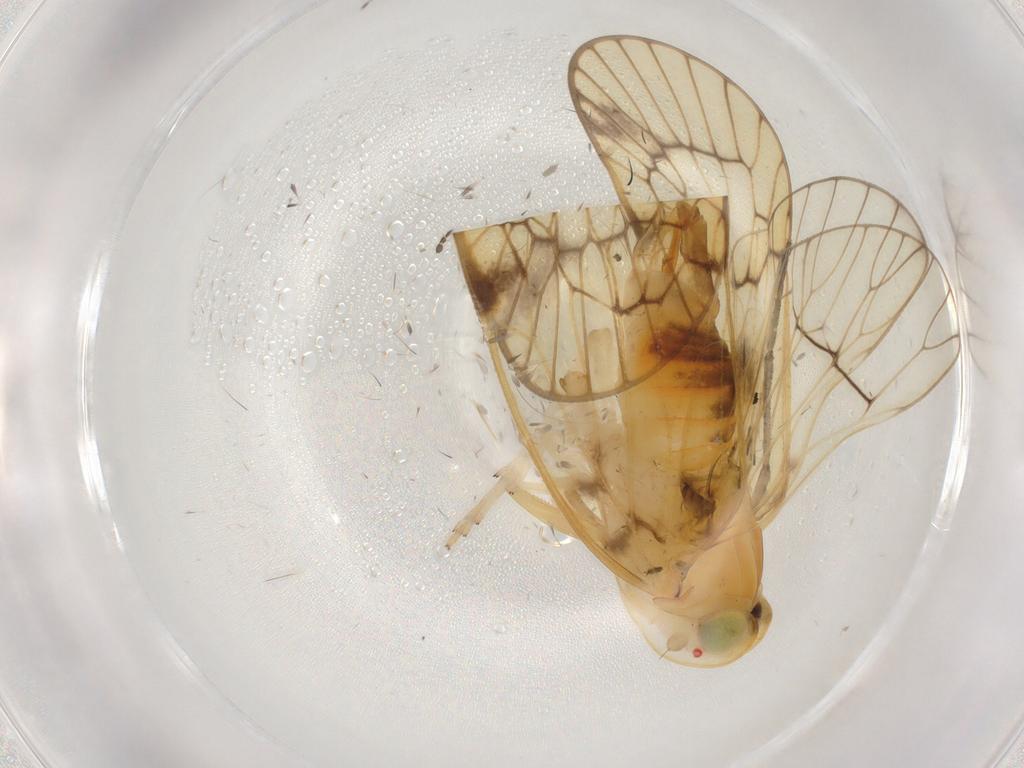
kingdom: Animalia
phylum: Arthropoda
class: Insecta
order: Hemiptera
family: Cixiidae
